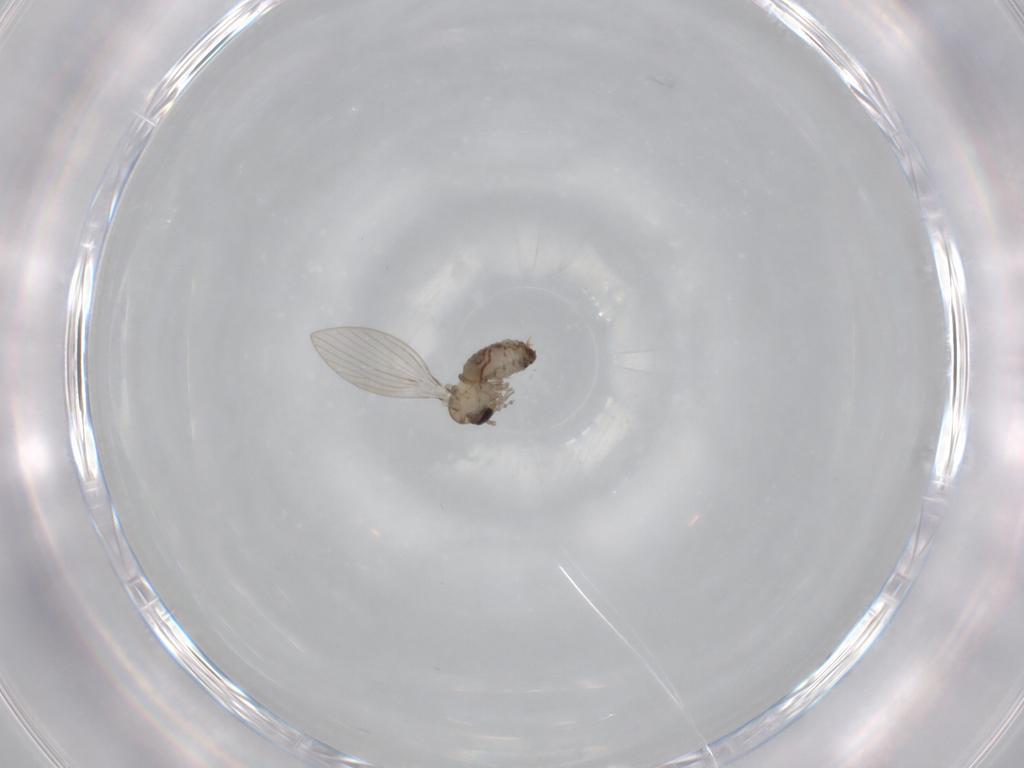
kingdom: Animalia
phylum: Arthropoda
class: Insecta
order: Diptera
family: Psychodidae
